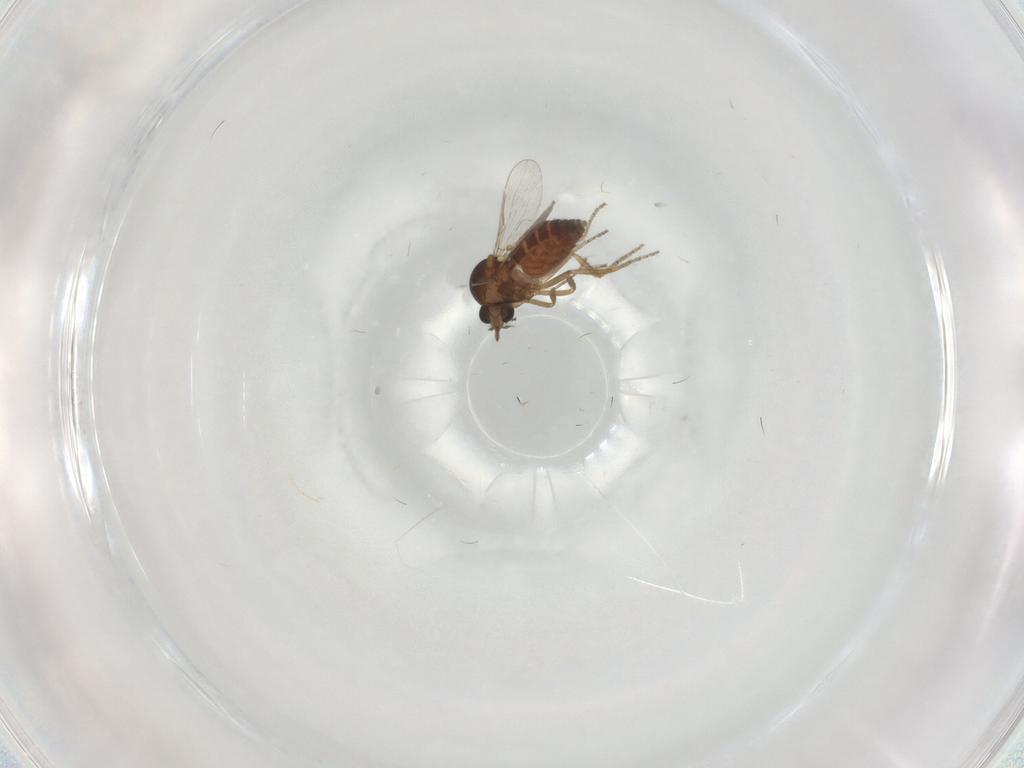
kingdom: Animalia
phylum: Arthropoda
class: Insecta
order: Diptera
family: Ceratopogonidae
